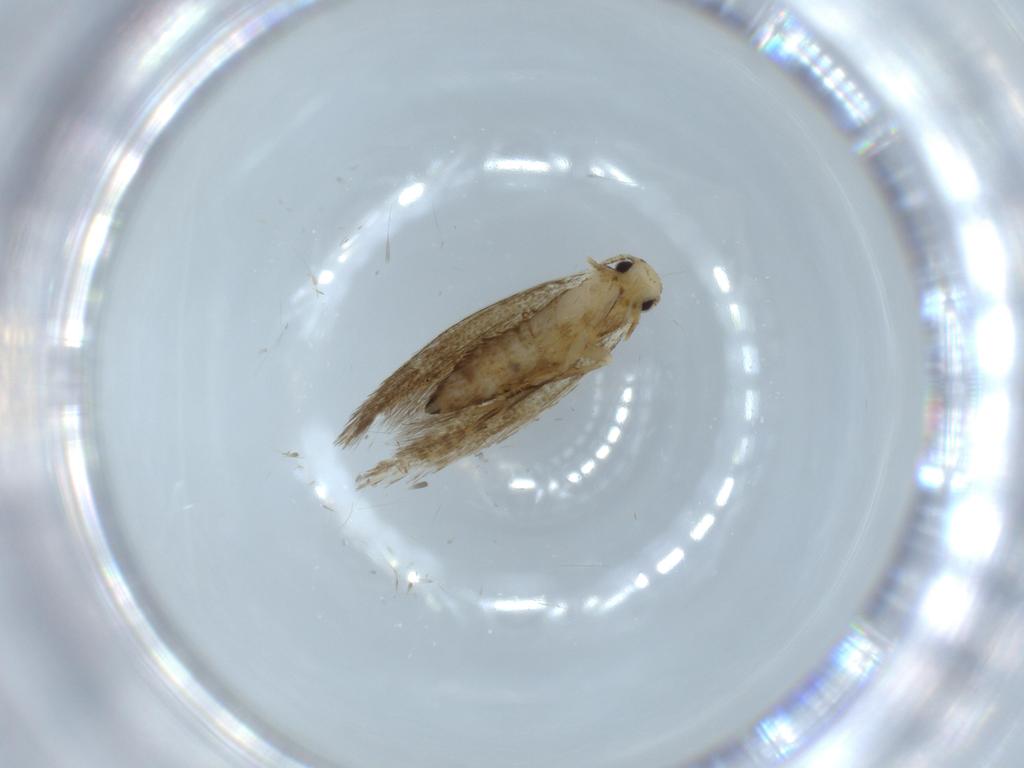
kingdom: Animalia
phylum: Arthropoda
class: Insecta
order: Lepidoptera
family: Tineidae
